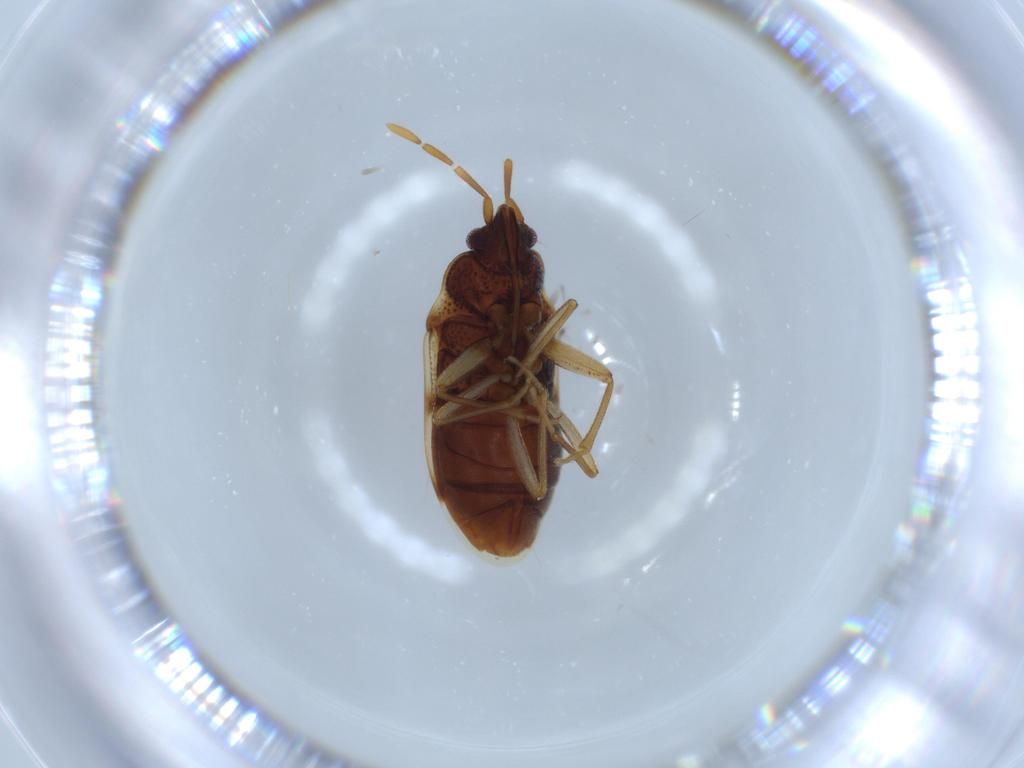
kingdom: Animalia
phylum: Arthropoda
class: Insecta
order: Hemiptera
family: Rhyparochromidae
